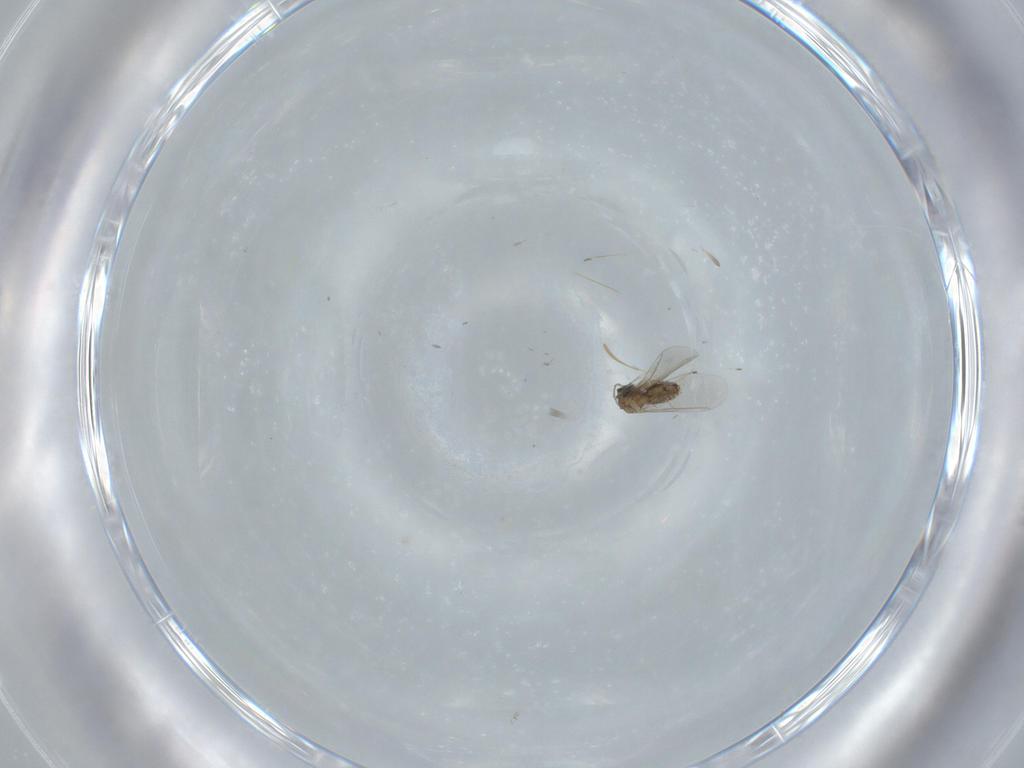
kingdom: Animalia
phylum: Arthropoda
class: Insecta
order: Diptera
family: Cecidomyiidae
